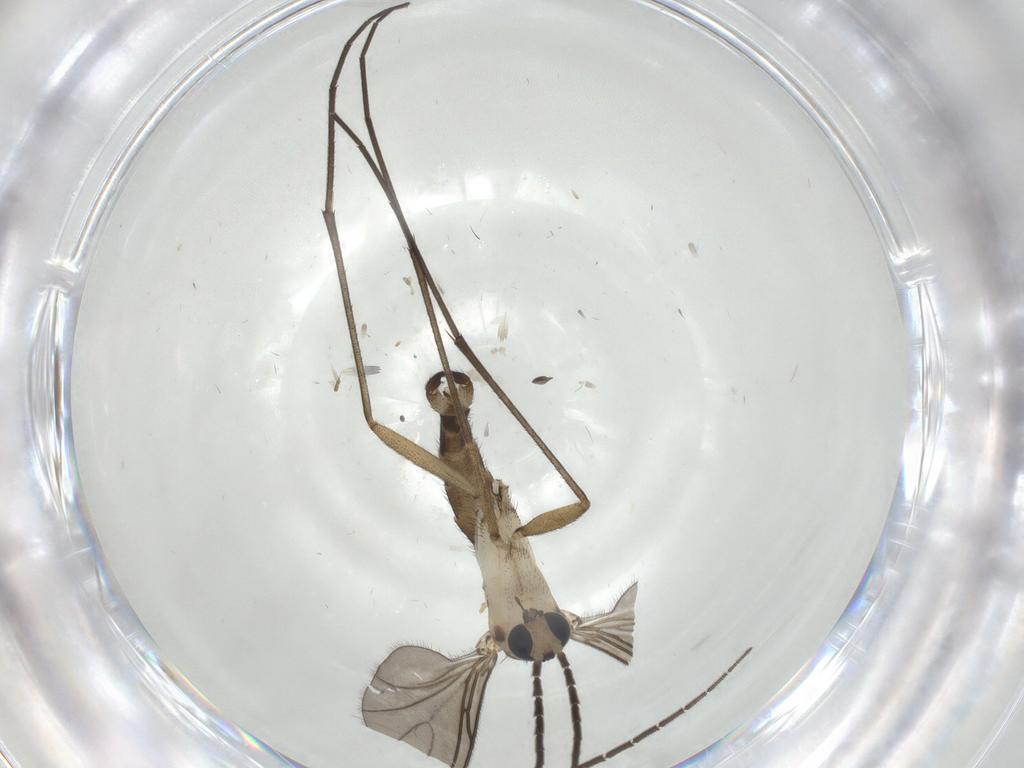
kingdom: Animalia
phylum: Arthropoda
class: Insecta
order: Diptera
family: Sciaridae
